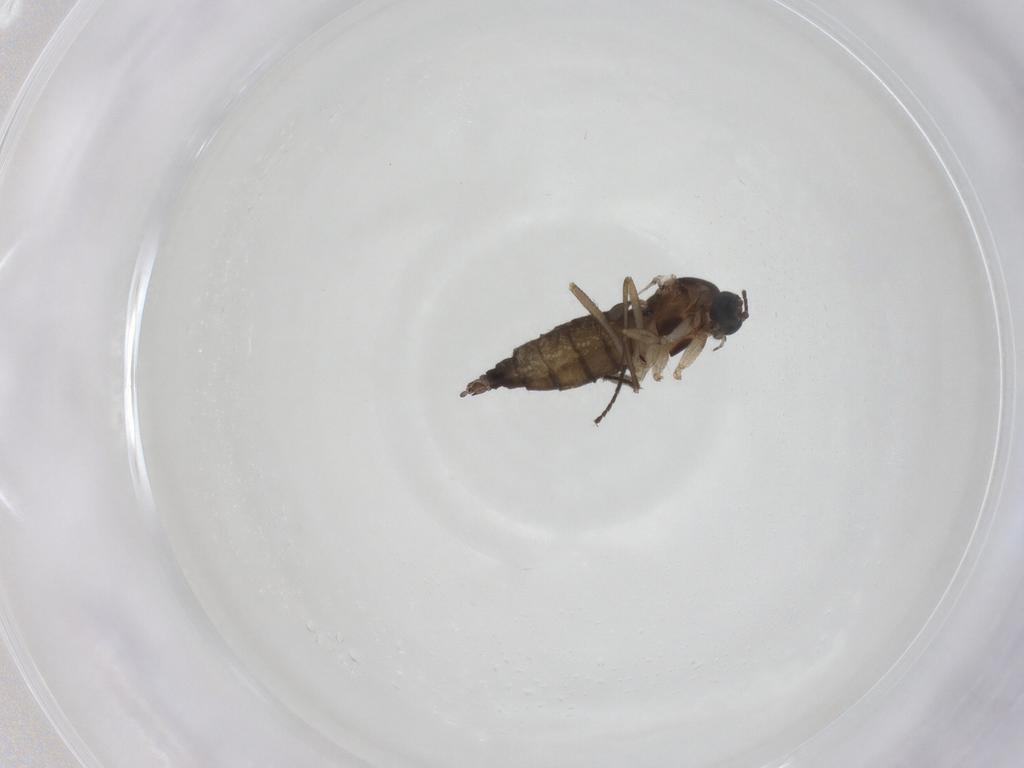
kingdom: Animalia
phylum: Arthropoda
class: Insecta
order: Diptera
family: Sciaridae
